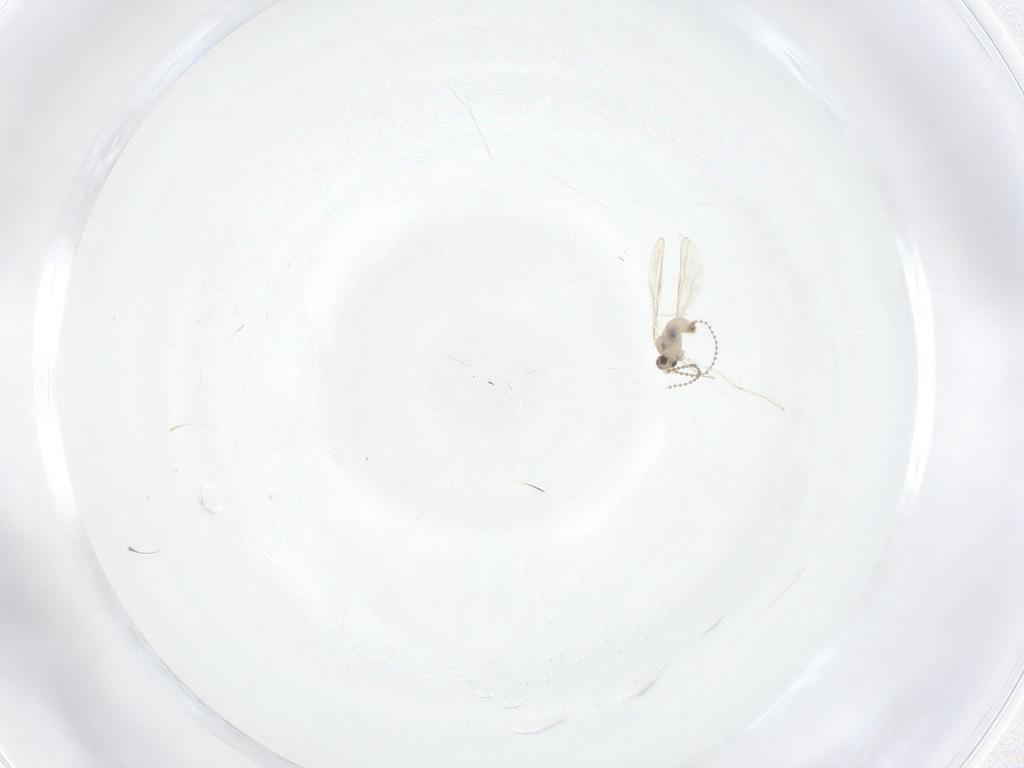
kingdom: Animalia
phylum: Arthropoda
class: Insecta
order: Diptera
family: Cecidomyiidae
